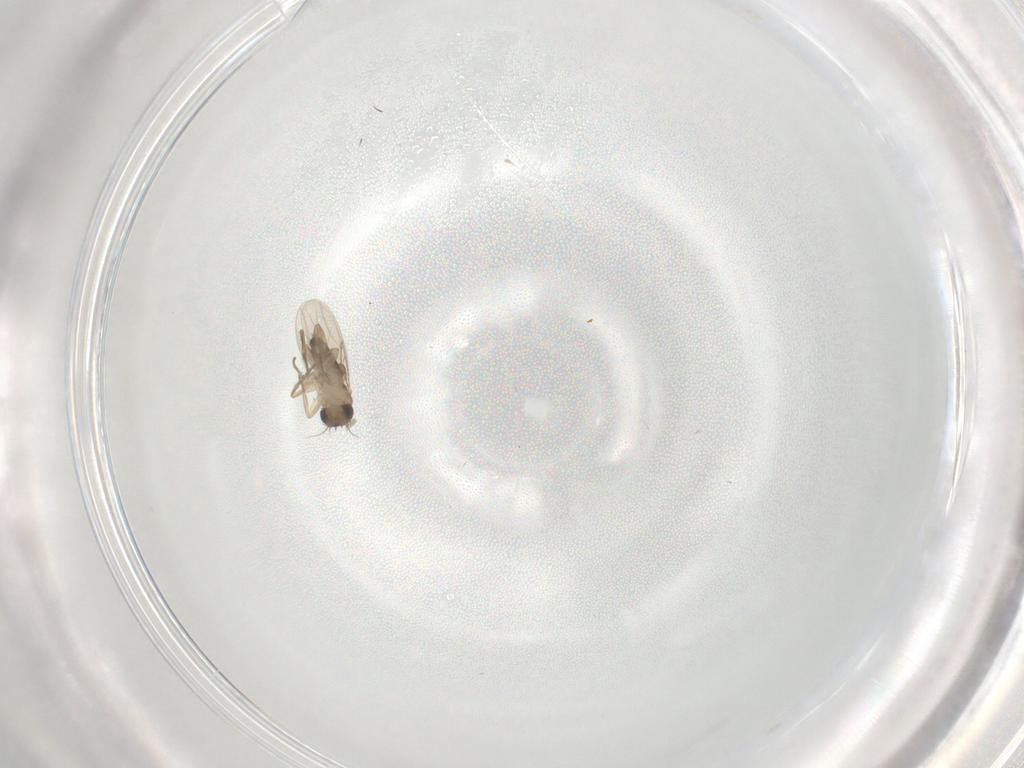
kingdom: Animalia
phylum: Arthropoda
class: Insecta
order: Diptera
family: Phoridae
